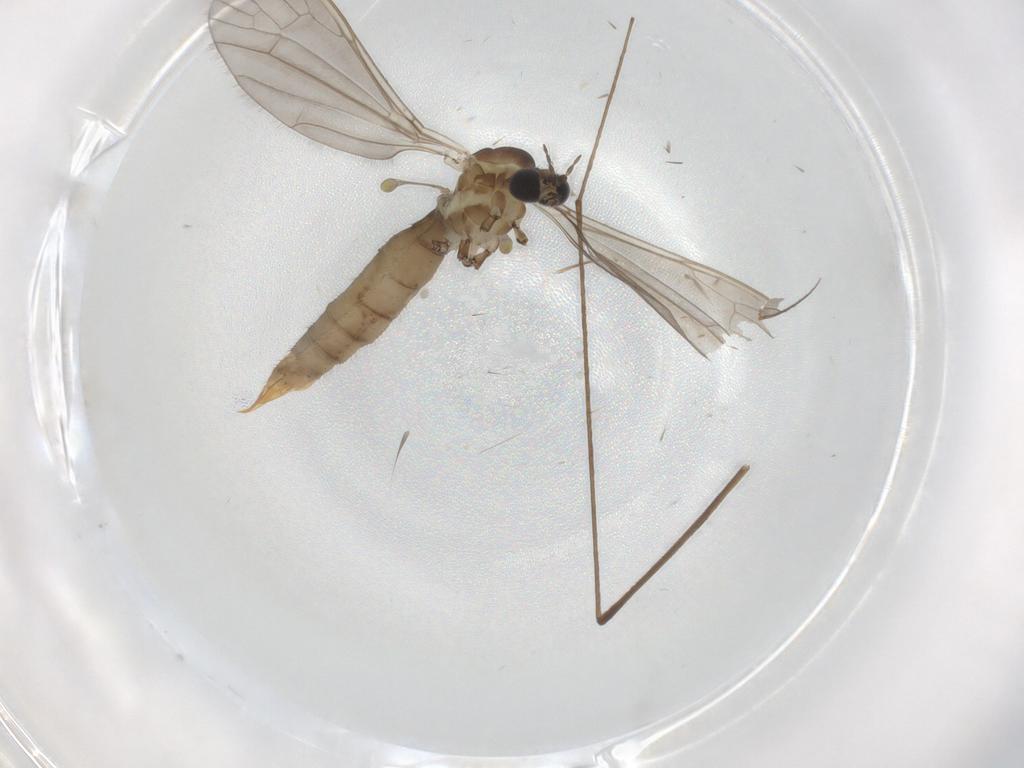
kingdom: Animalia
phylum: Arthropoda
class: Insecta
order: Diptera
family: Limoniidae
